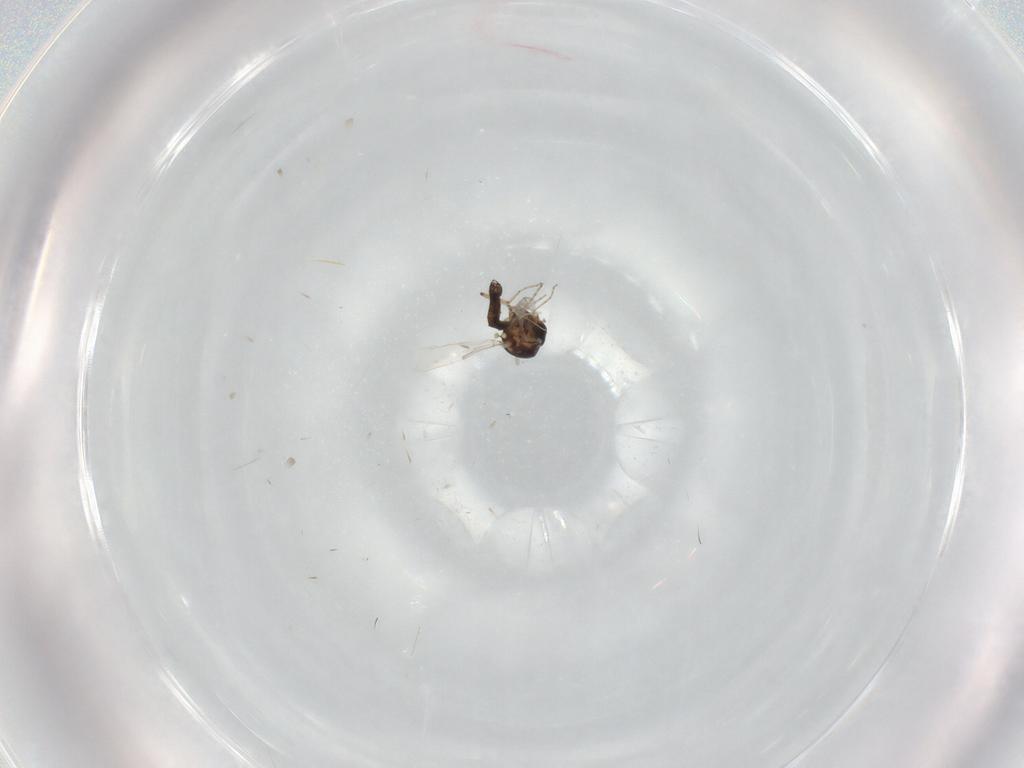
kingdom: Animalia
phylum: Arthropoda
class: Insecta
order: Diptera
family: Ceratopogonidae
